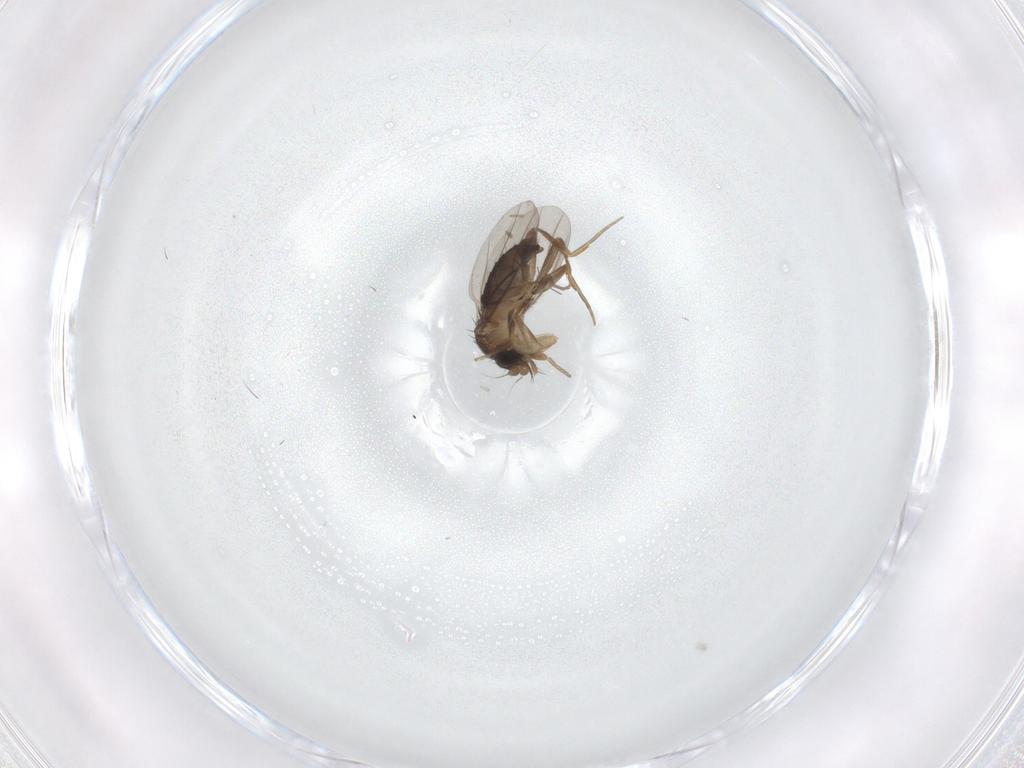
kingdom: Animalia
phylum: Arthropoda
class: Insecta
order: Diptera
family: Phoridae
